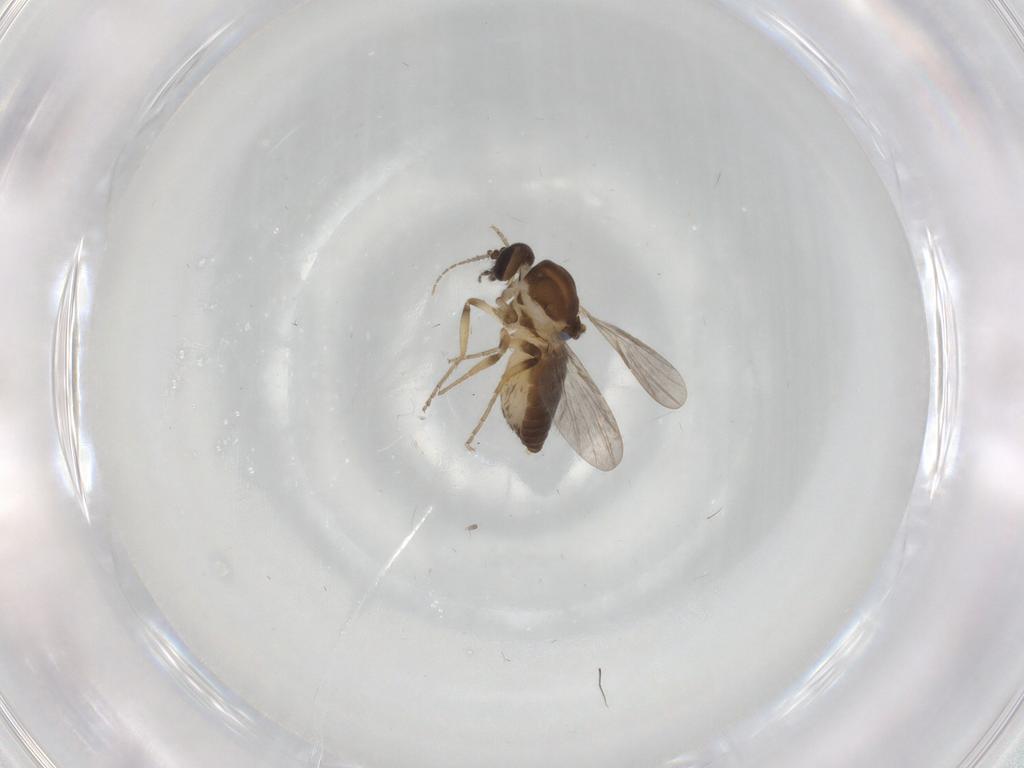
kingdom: Animalia
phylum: Arthropoda
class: Insecta
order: Diptera
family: Ceratopogonidae
